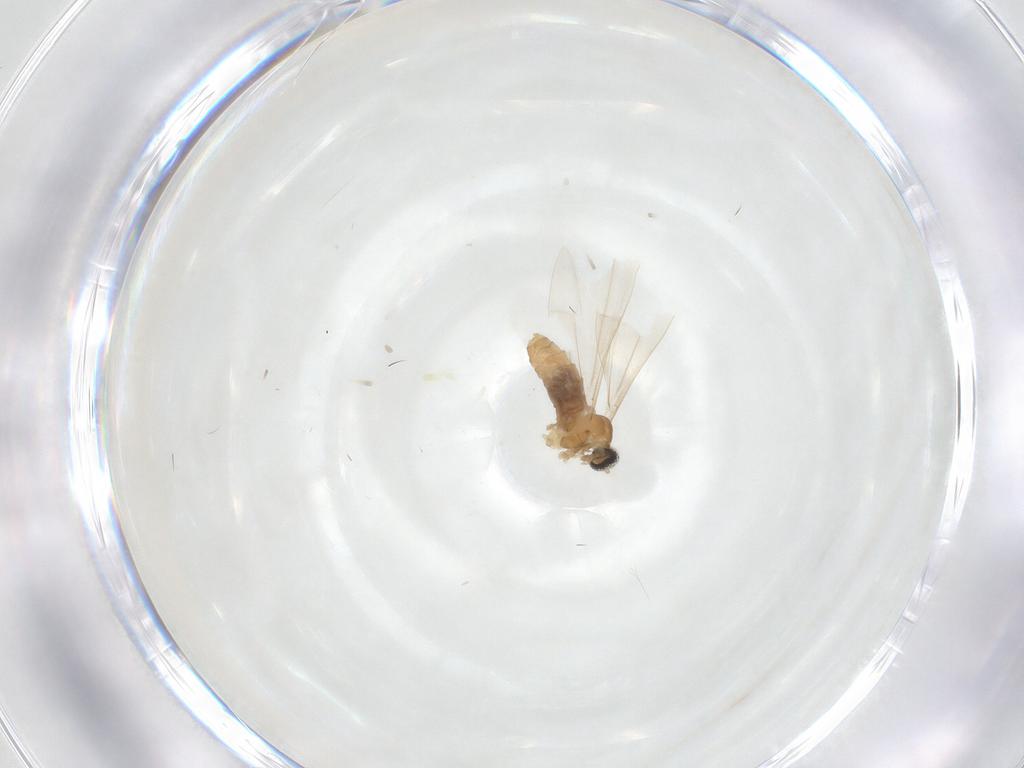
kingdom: Animalia
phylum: Arthropoda
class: Insecta
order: Diptera
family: Cecidomyiidae
